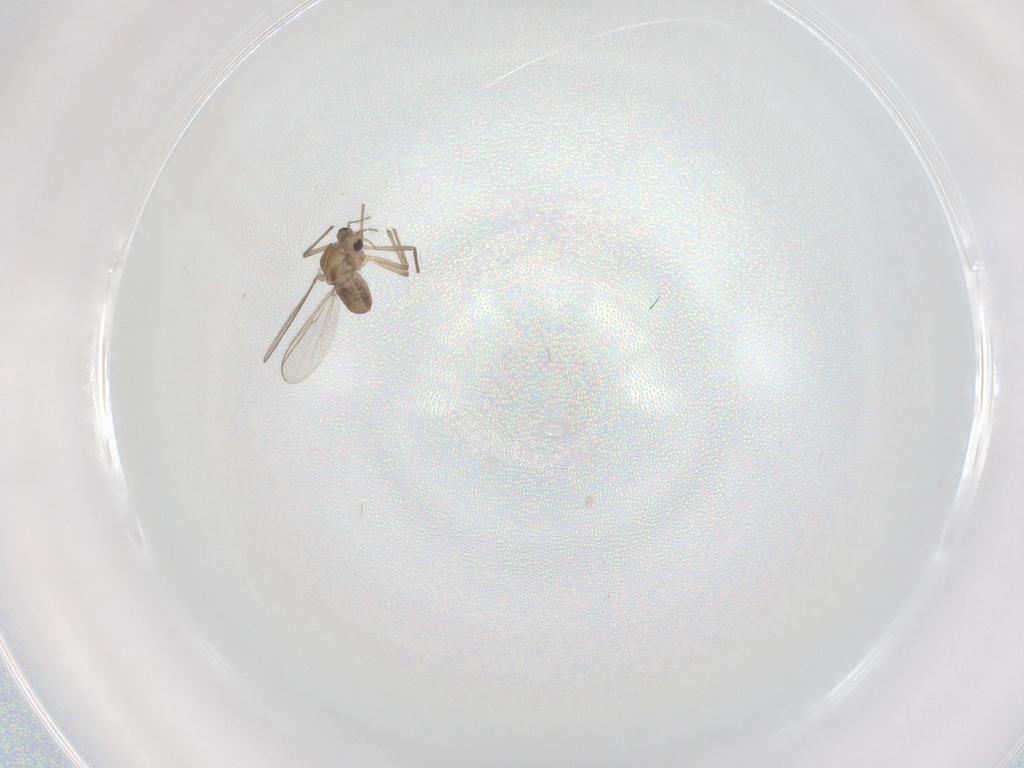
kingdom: Animalia
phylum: Arthropoda
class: Insecta
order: Diptera
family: Chironomidae
